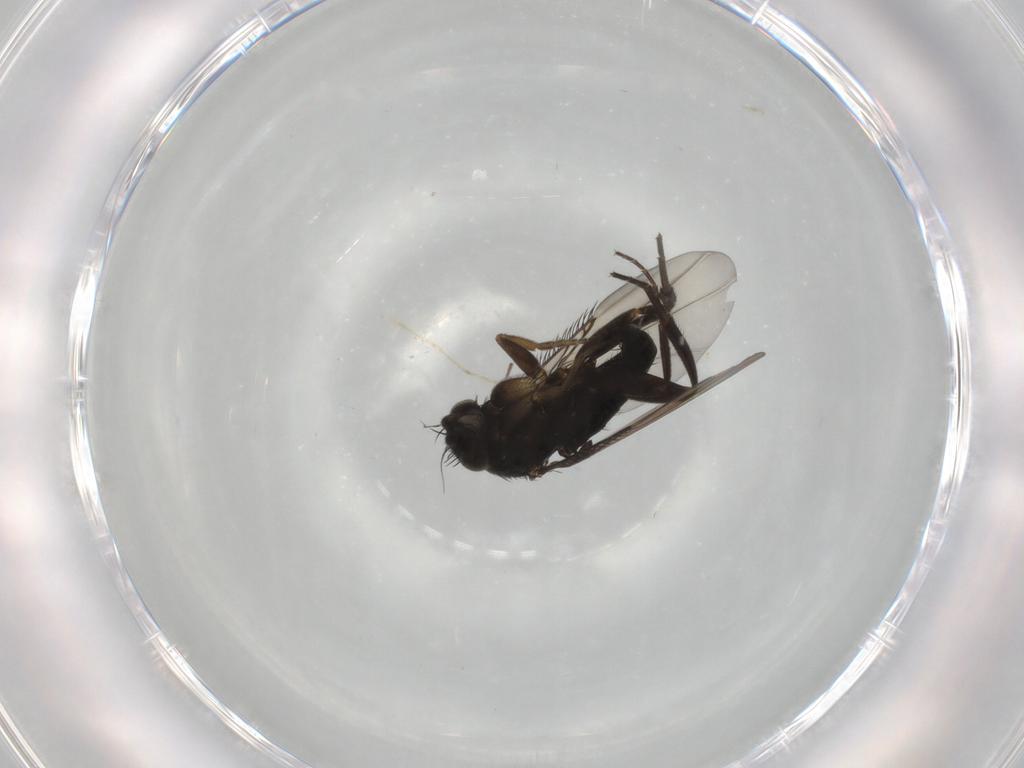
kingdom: Animalia
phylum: Arthropoda
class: Insecta
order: Diptera
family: Phoridae
